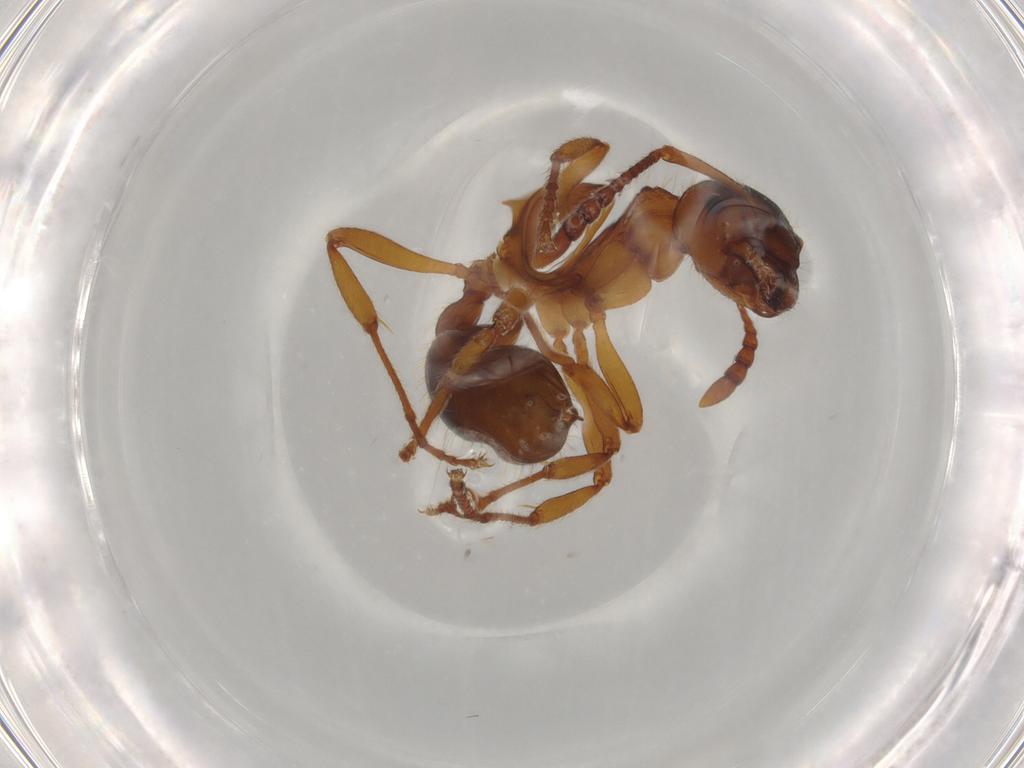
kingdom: Animalia
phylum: Arthropoda
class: Insecta
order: Hymenoptera
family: Formicidae
